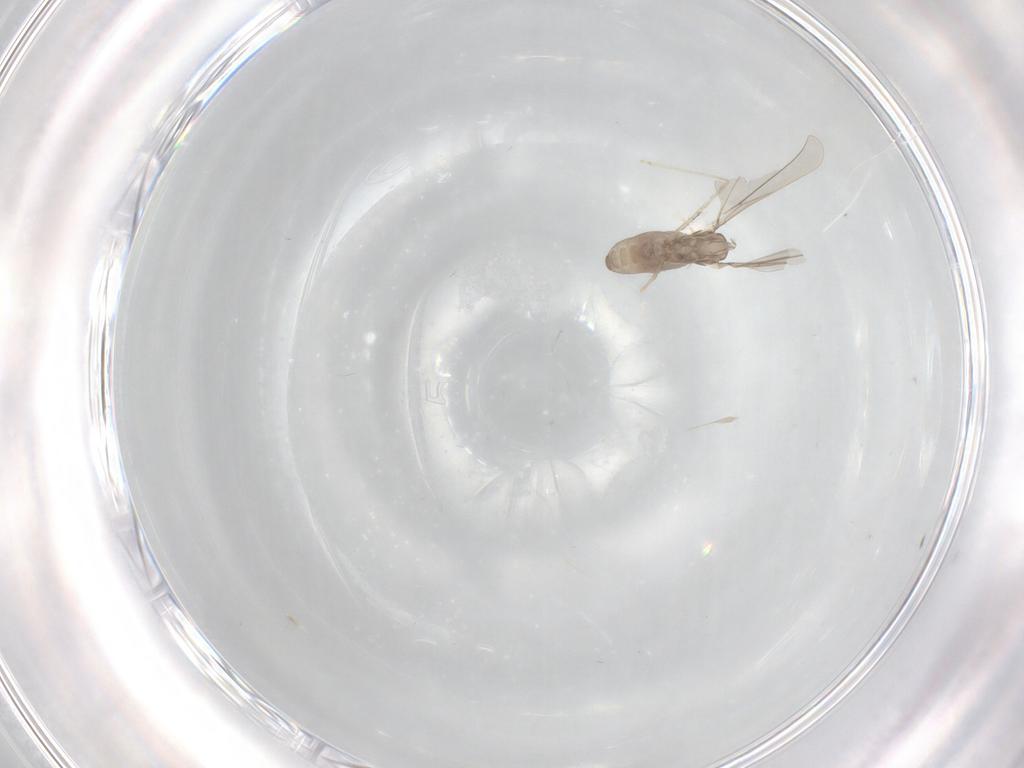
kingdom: Animalia
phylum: Arthropoda
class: Insecta
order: Diptera
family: Cecidomyiidae
